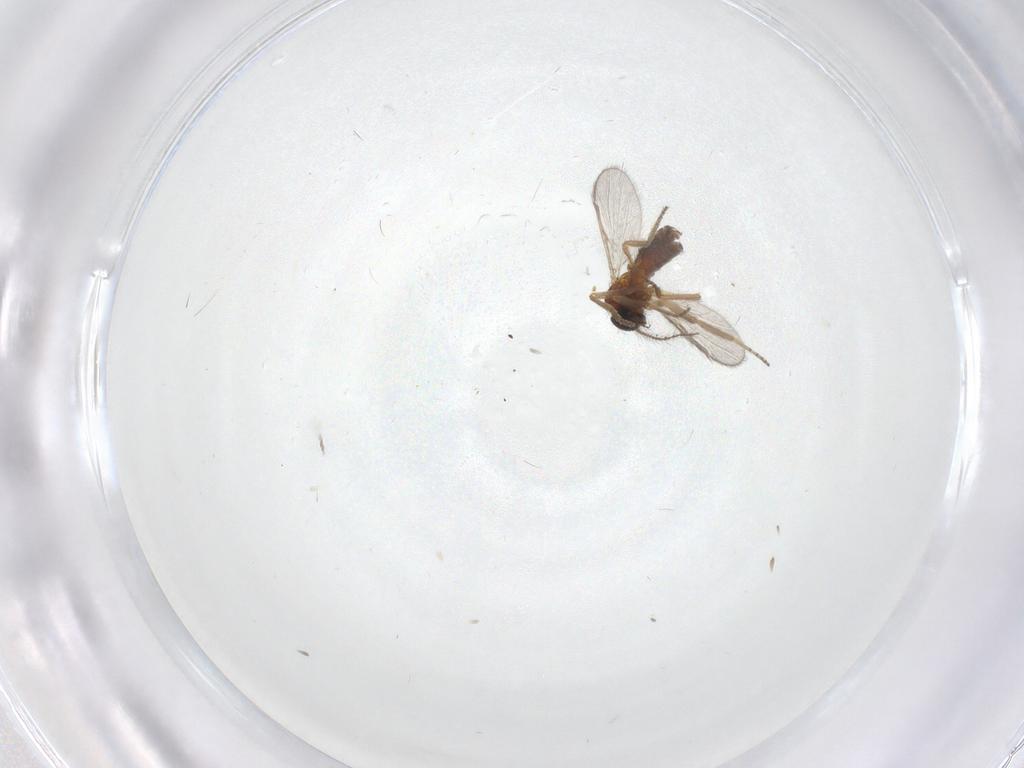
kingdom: Animalia
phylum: Arthropoda
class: Insecta
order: Diptera
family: Ceratopogonidae
